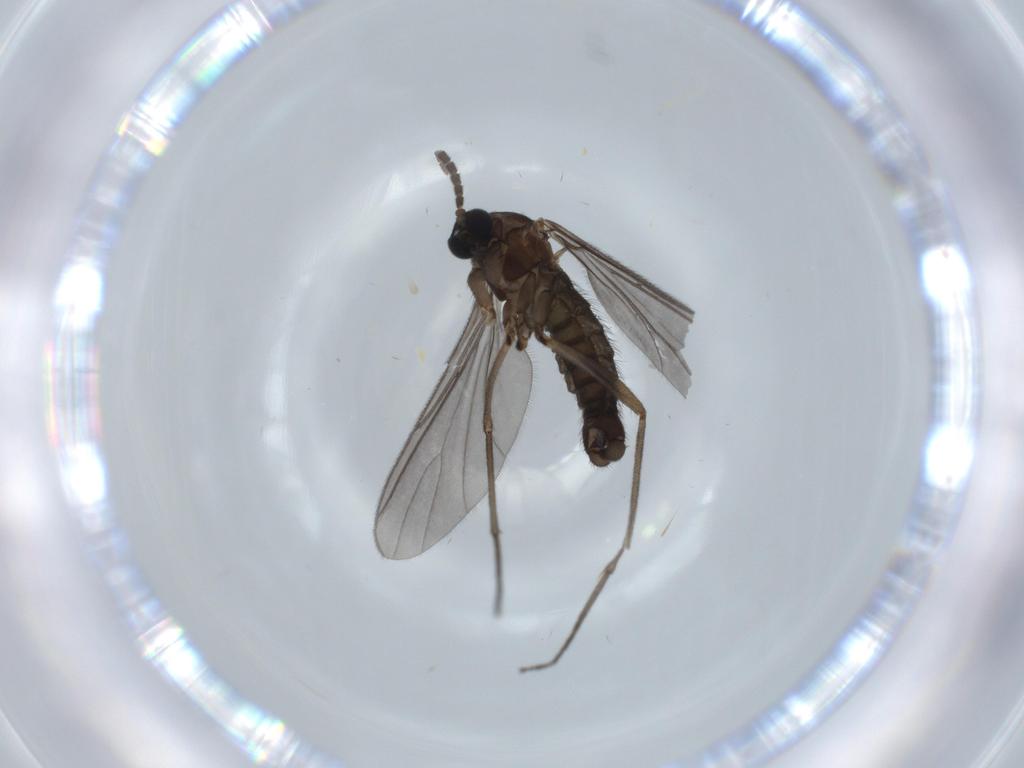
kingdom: Animalia
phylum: Arthropoda
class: Insecta
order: Diptera
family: Sciaridae
